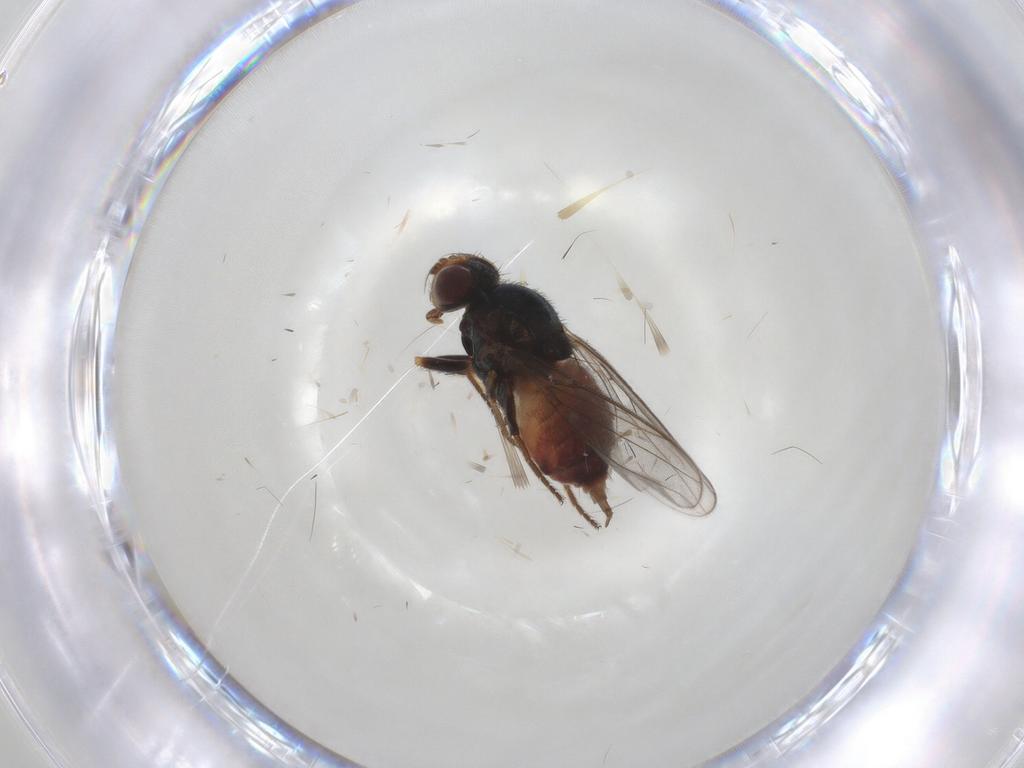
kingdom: Animalia
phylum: Arthropoda
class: Insecta
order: Diptera
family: Chloropidae
